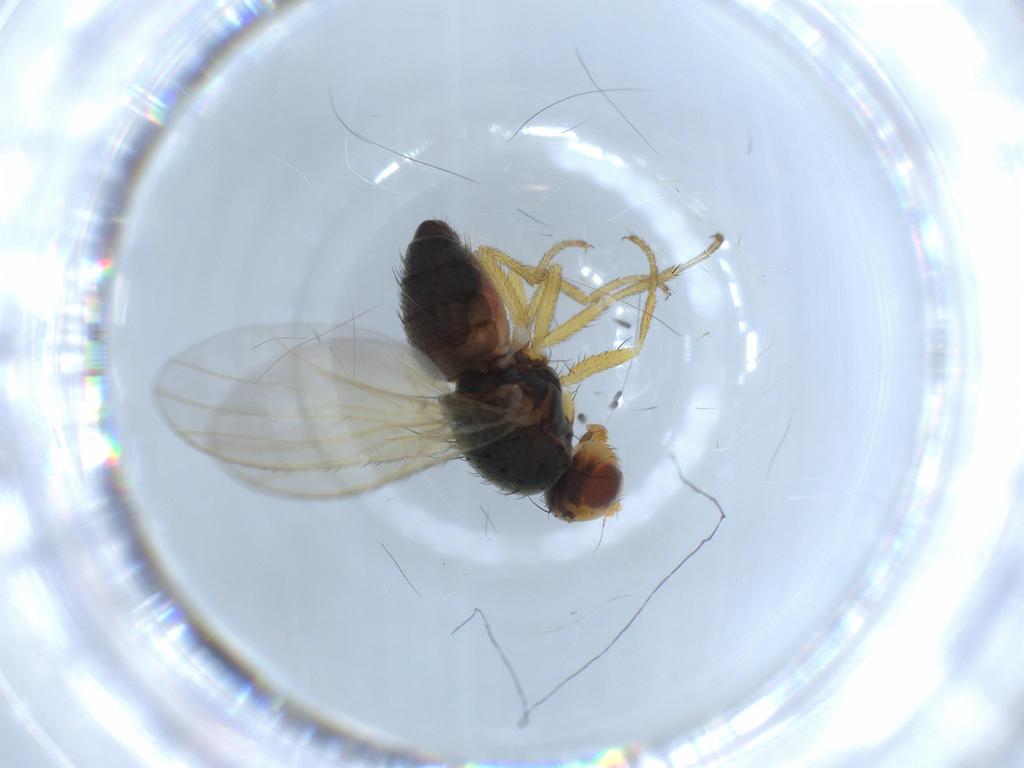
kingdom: Animalia
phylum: Arthropoda
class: Insecta
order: Diptera
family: Heleomyzidae
